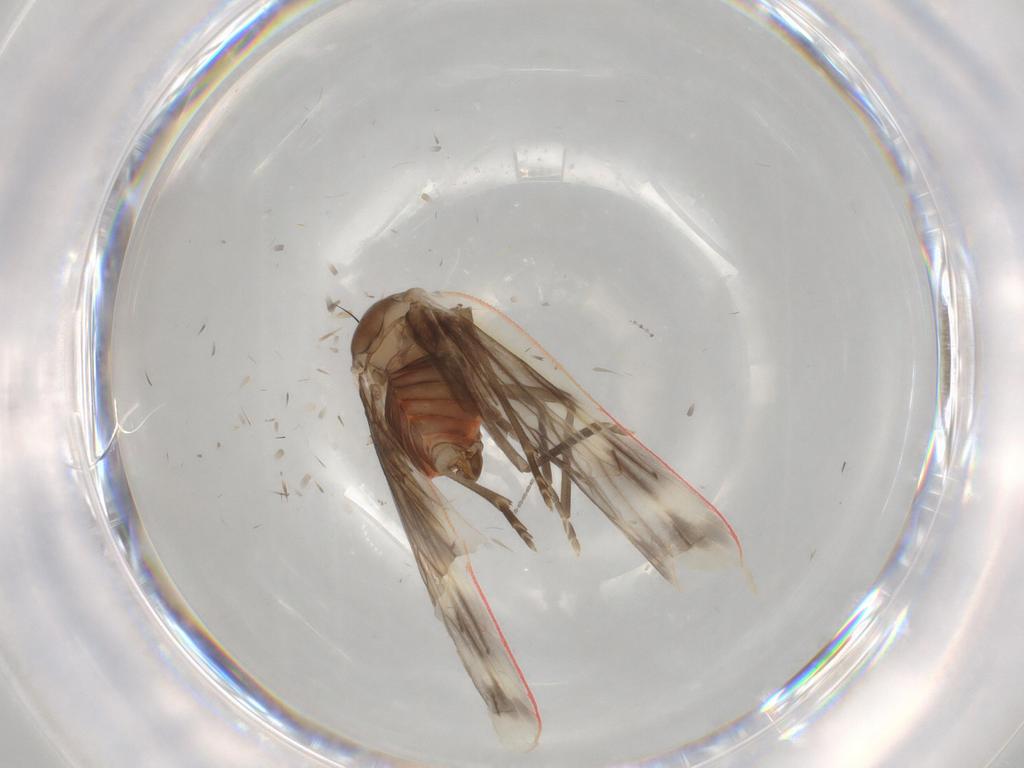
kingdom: Animalia
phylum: Arthropoda
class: Insecta
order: Hemiptera
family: Derbidae
